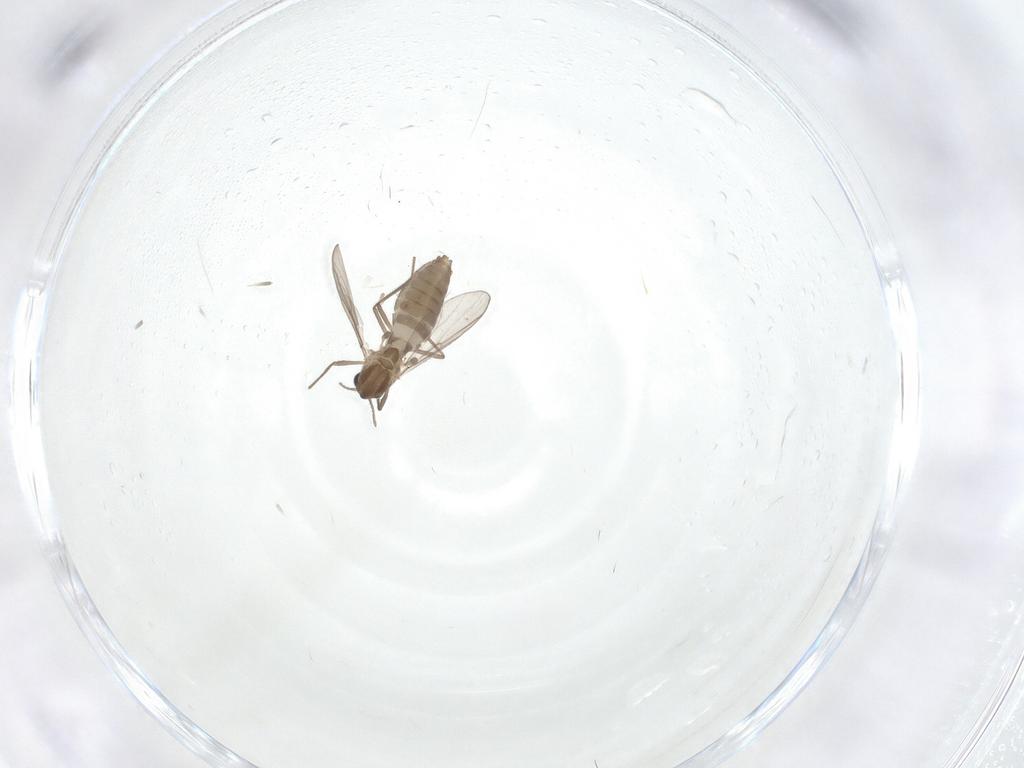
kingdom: Animalia
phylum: Arthropoda
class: Insecta
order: Diptera
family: Chironomidae
